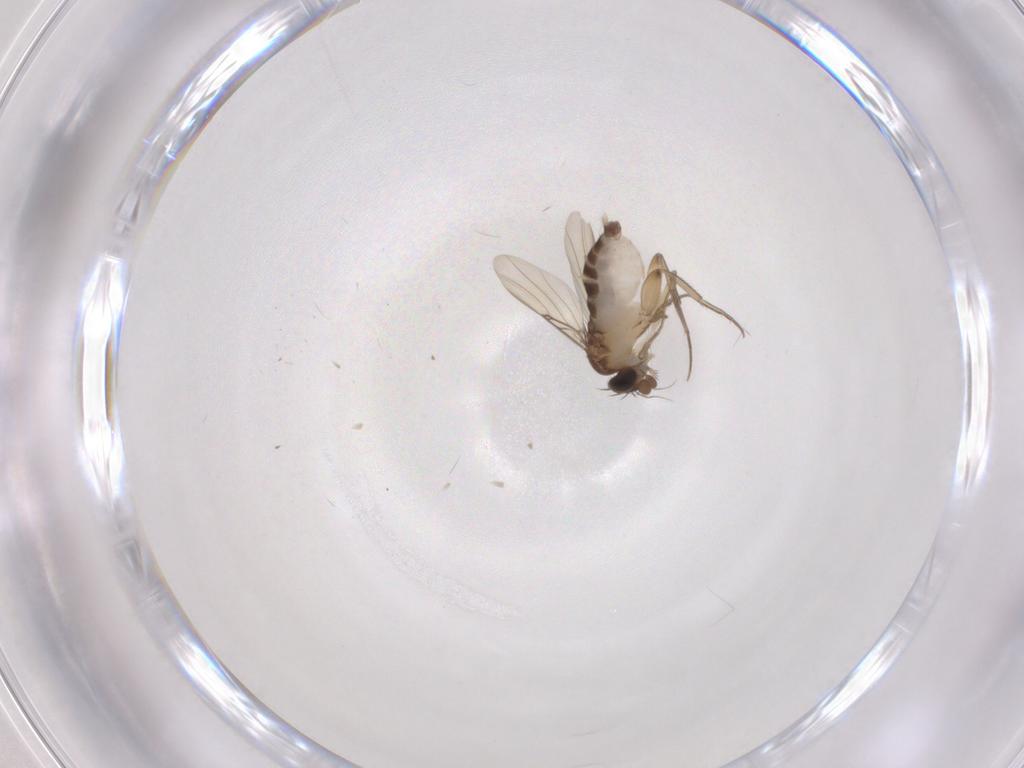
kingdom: Animalia
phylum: Arthropoda
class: Insecta
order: Diptera
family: Phoridae
